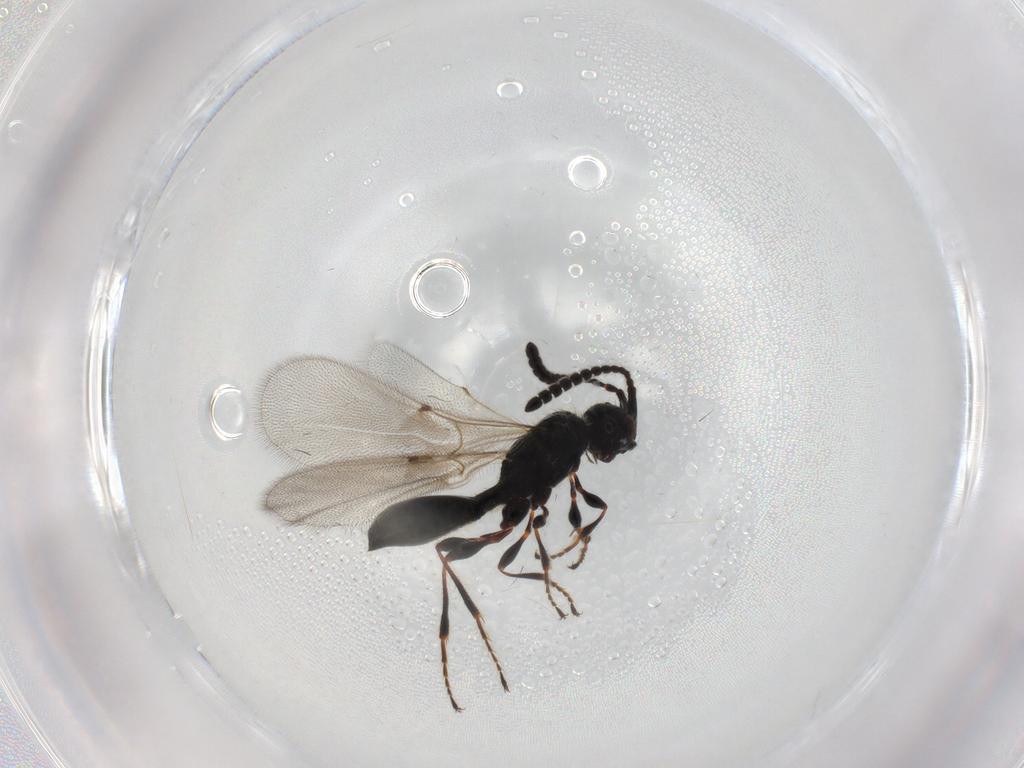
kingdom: Animalia
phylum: Arthropoda
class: Insecta
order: Hymenoptera
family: Diapriidae
